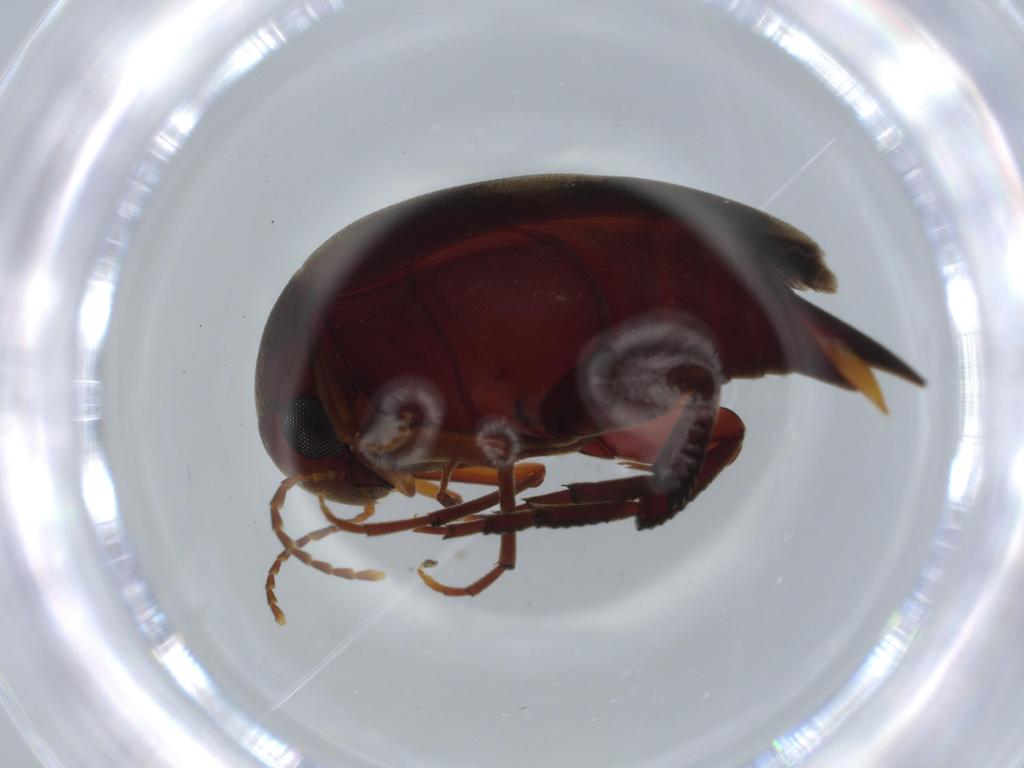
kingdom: Animalia
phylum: Arthropoda
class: Insecta
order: Coleoptera
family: Mordellidae
